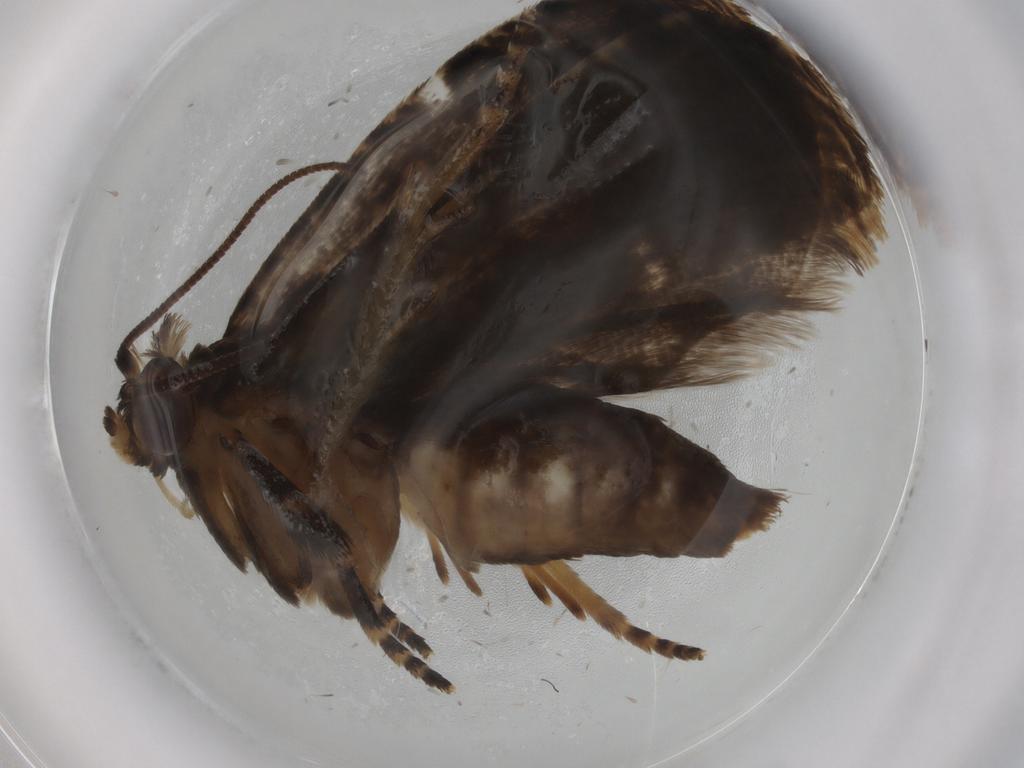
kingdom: Animalia
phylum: Arthropoda
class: Insecta
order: Lepidoptera
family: Tortricidae
